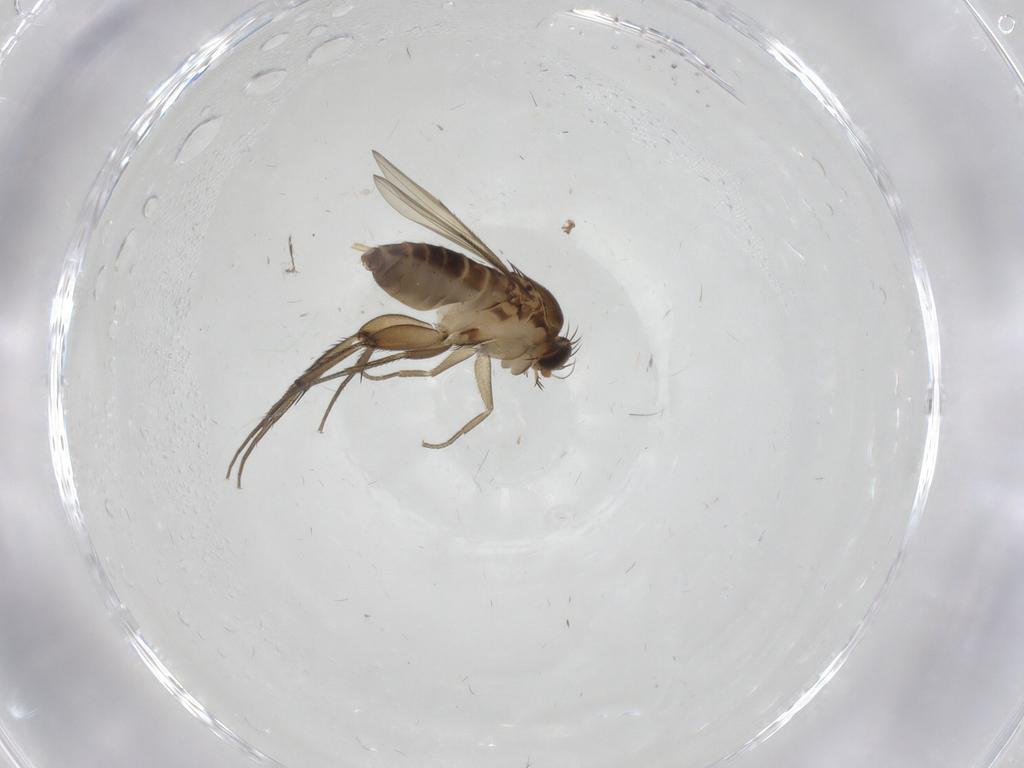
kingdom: Animalia
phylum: Arthropoda
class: Insecta
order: Diptera
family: Phoridae
